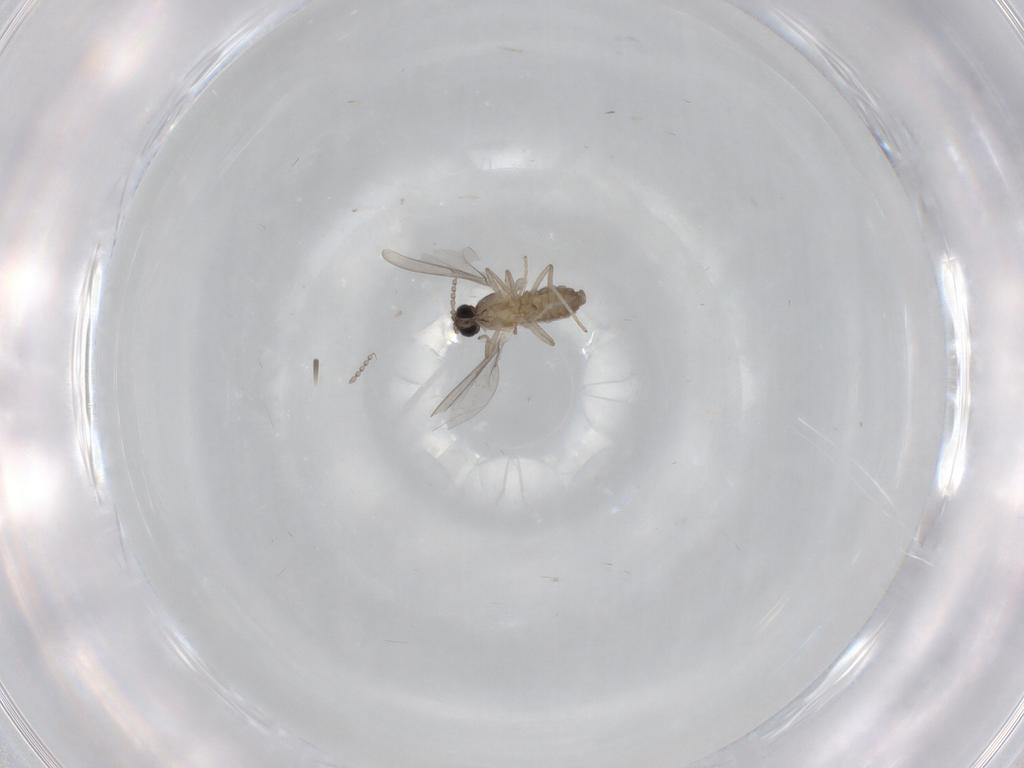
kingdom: Animalia
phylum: Arthropoda
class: Insecta
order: Diptera
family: Cecidomyiidae
